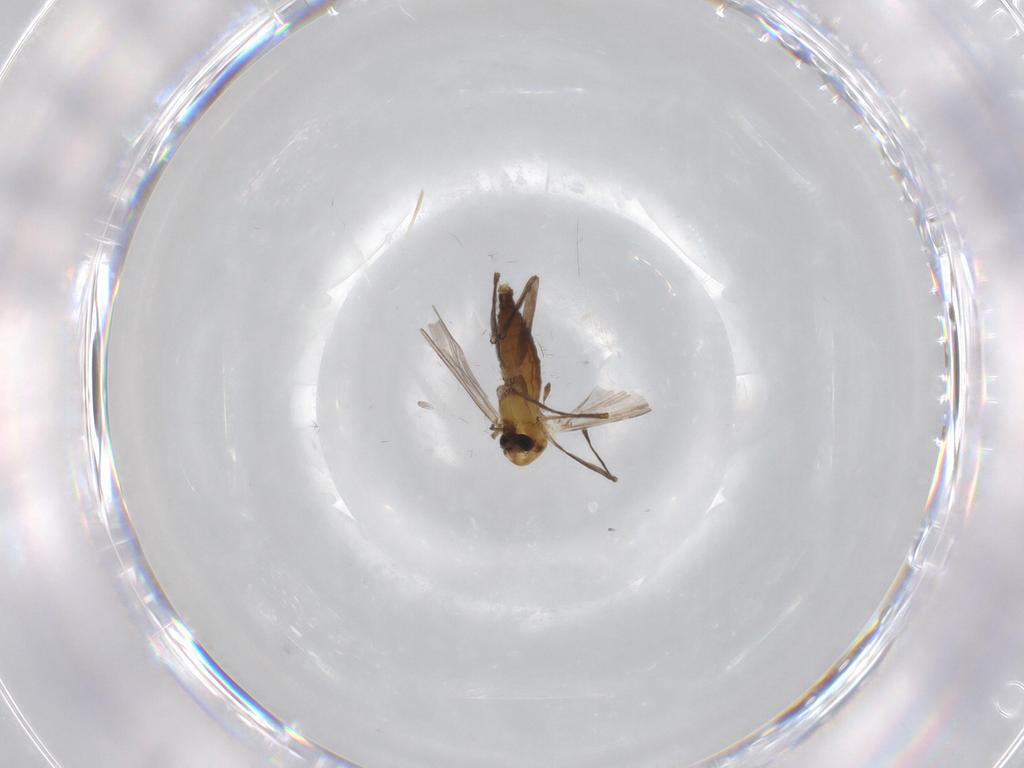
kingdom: Animalia
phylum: Arthropoda
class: Insecta
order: Diptera
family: Chironomidae
